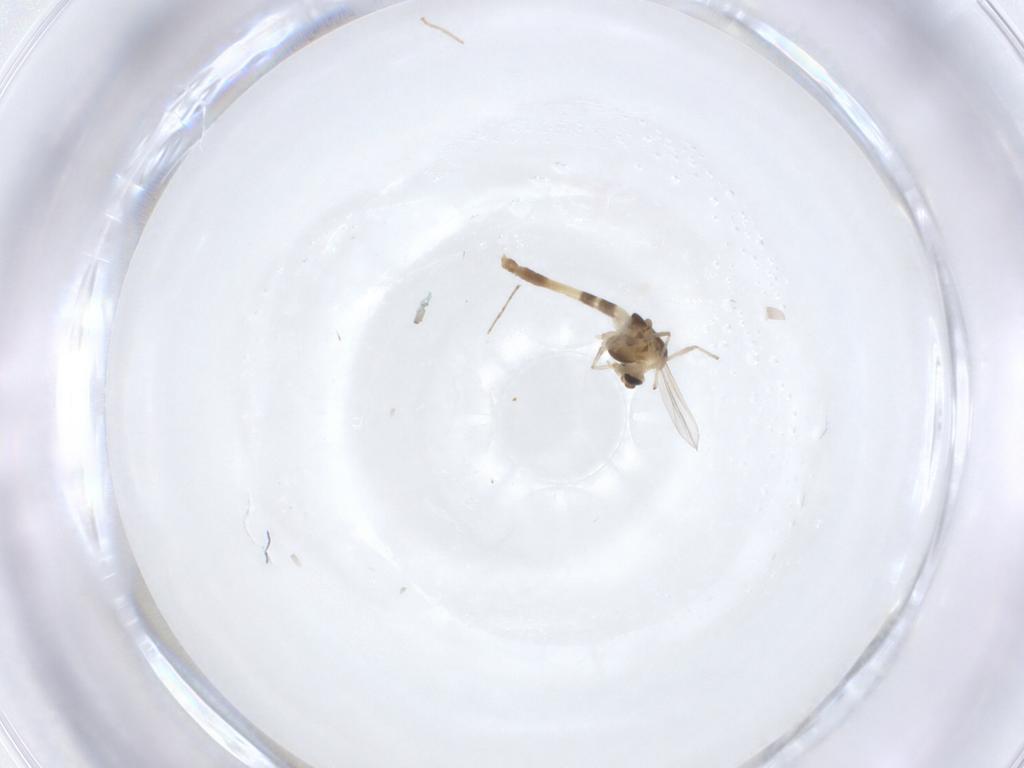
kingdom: Animalia
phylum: Arthropoda
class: Insecta
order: Diptera
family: Chironomidae
